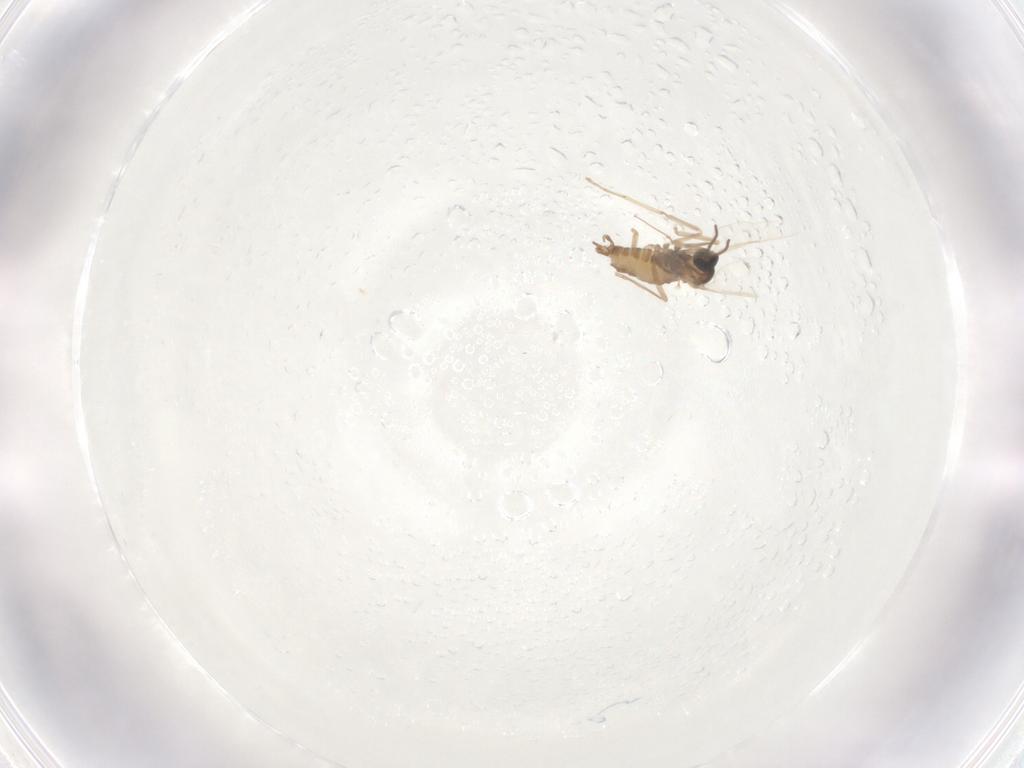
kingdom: Animalia
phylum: Arthropoda
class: Insecta
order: Diptera
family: Cecidomyiidae
